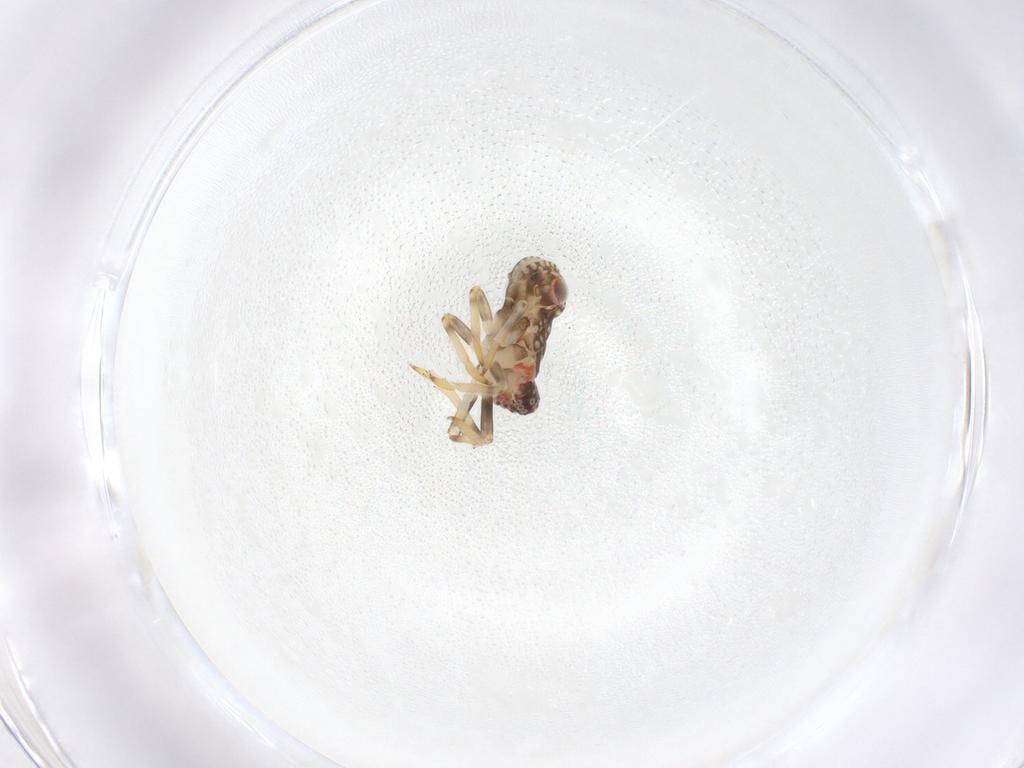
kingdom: Animalia
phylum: Arthropoda
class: Insecta
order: Hemiptera
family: Tropiduchidae
